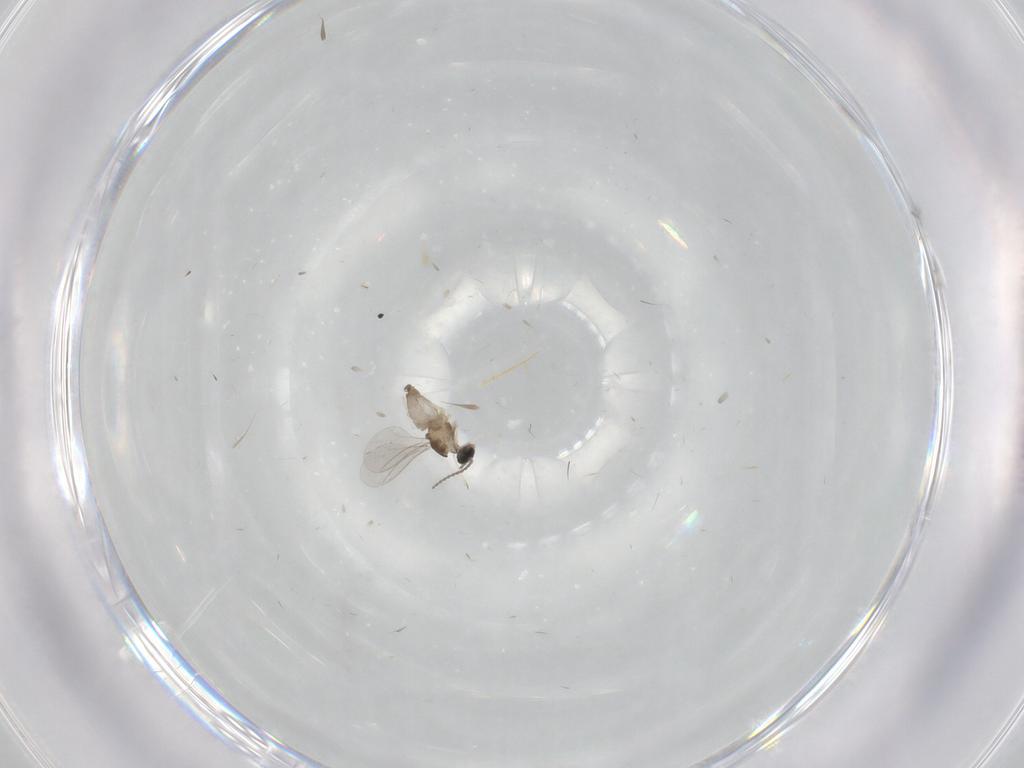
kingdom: Animalia
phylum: Arthropoda
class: Insecta
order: Diptera
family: Cecidomyiidae
